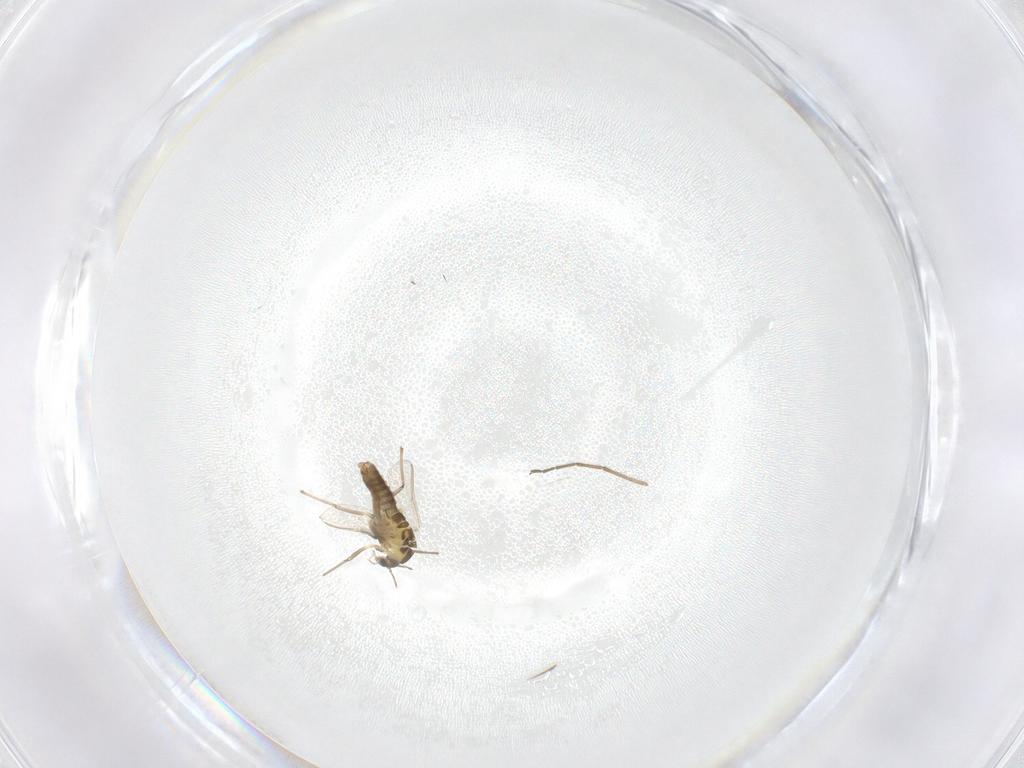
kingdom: Animalia
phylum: Arthropoda
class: Insecta
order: Diptera
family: Chironomidae
